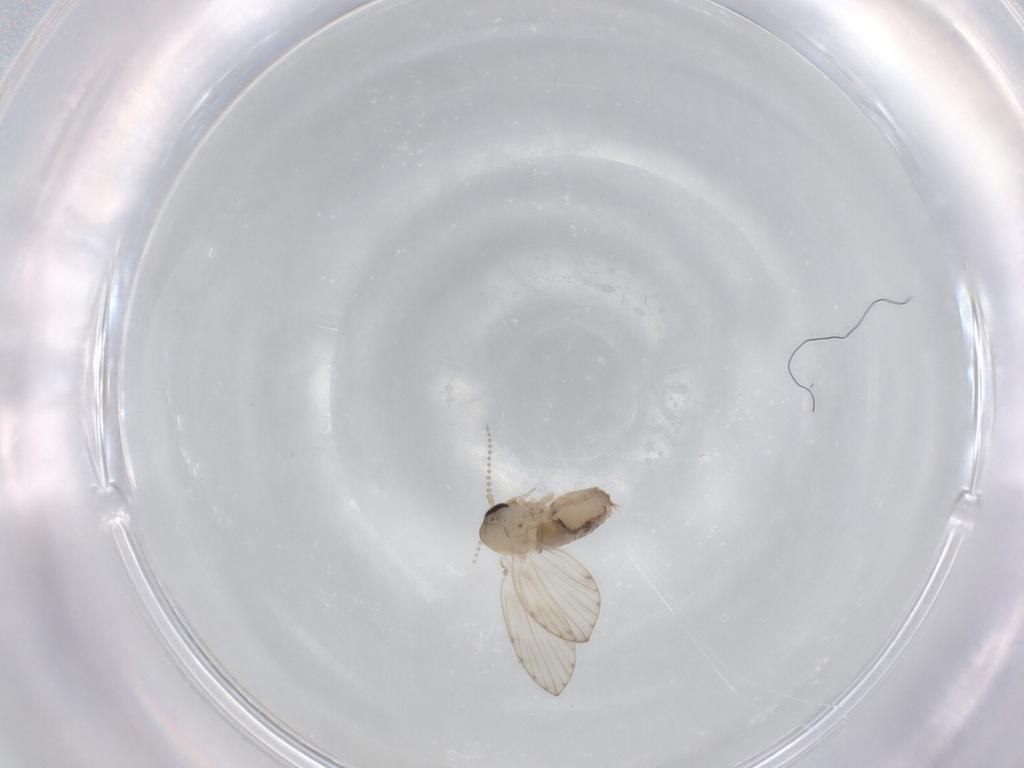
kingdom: Animalia
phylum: Arthropoda
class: Insecta
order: Diptera
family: Psychodidae
